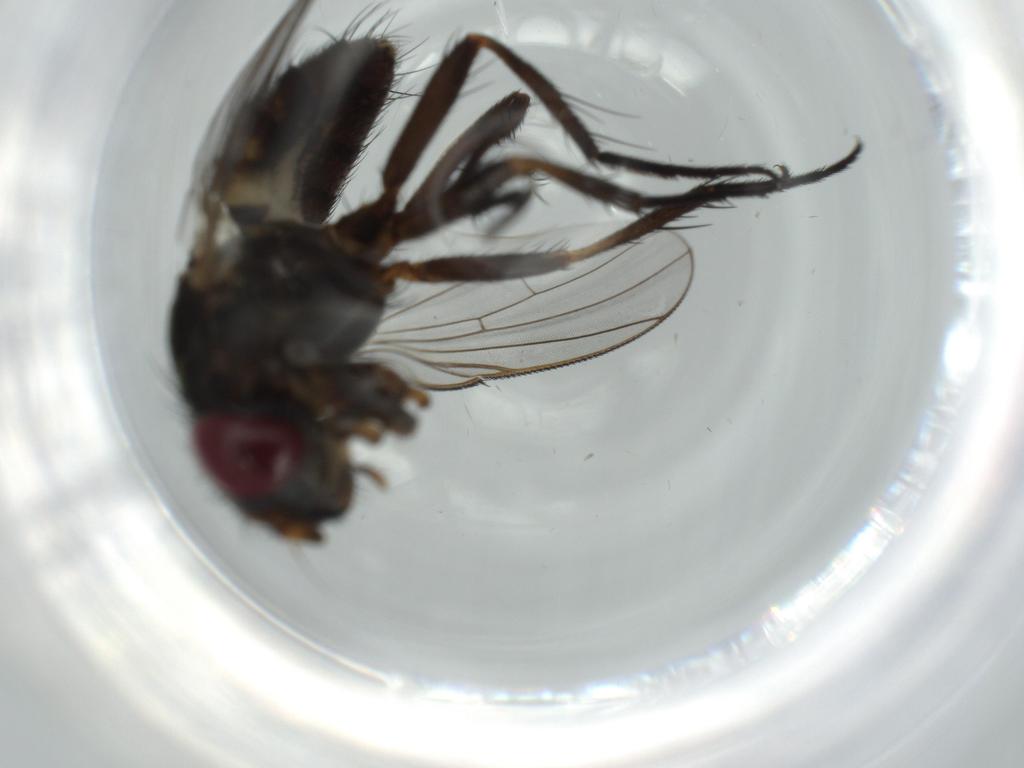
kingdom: Animalia
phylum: Arthropoda
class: Insecta
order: Diptera
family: Fannia
